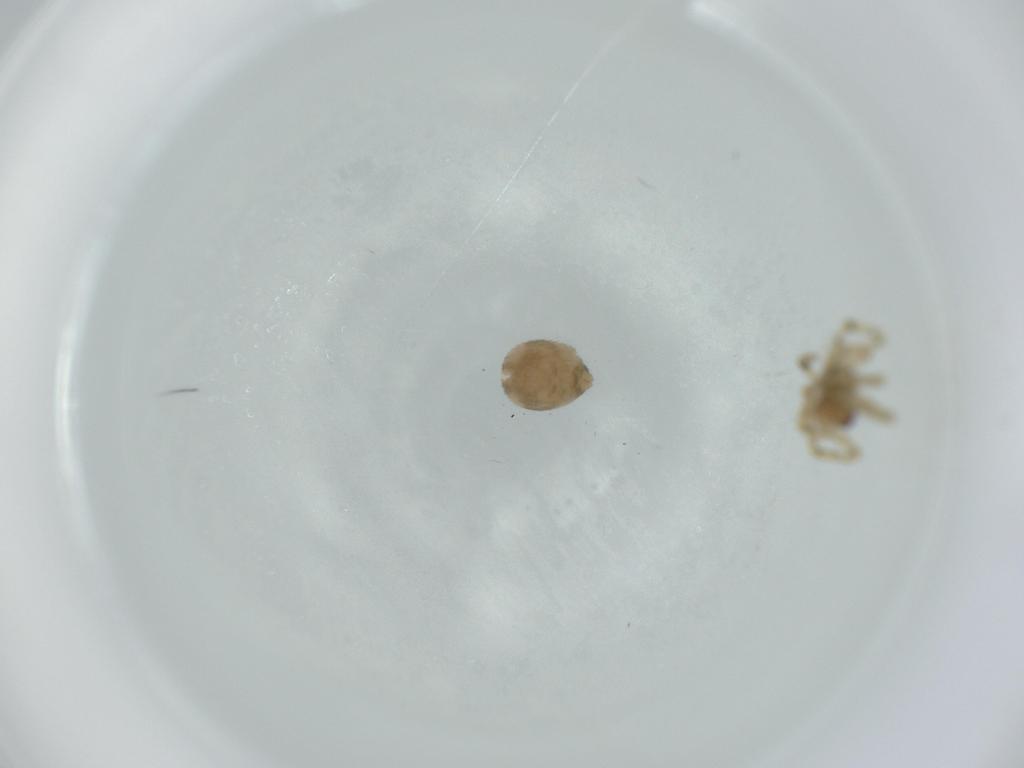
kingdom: Animalia
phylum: Arthropoda
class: Arachnida
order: Araneae
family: Theridiidae
